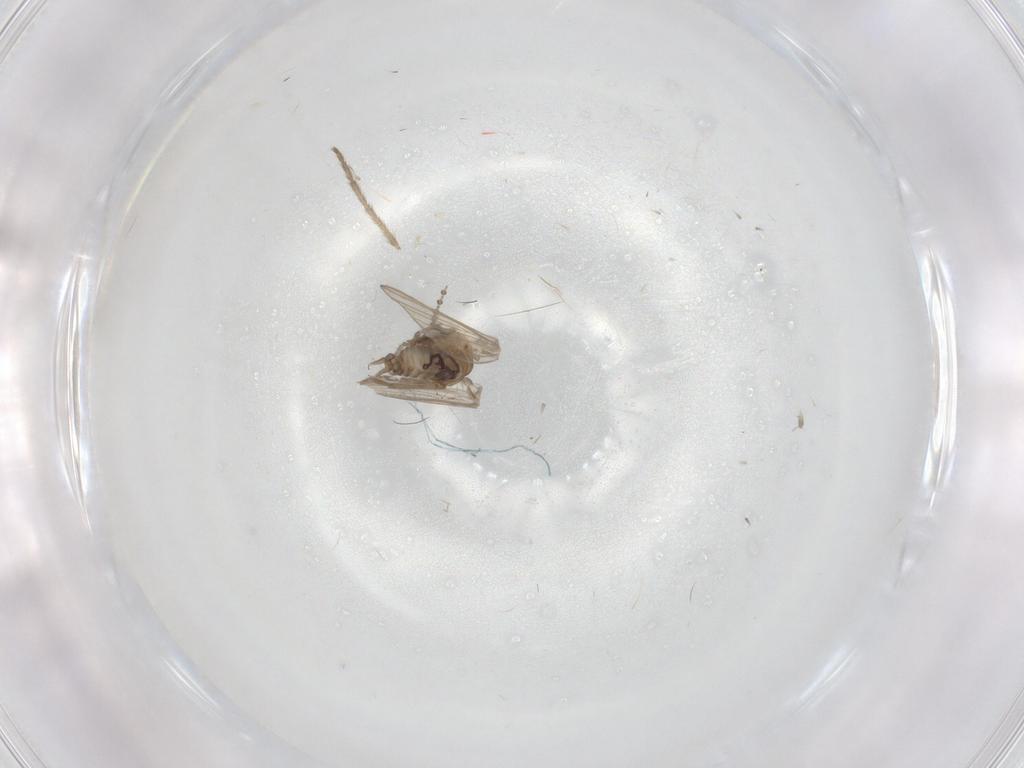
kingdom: Animalia
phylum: Arthropoda
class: Insecta
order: Diptera
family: Psychodidae
